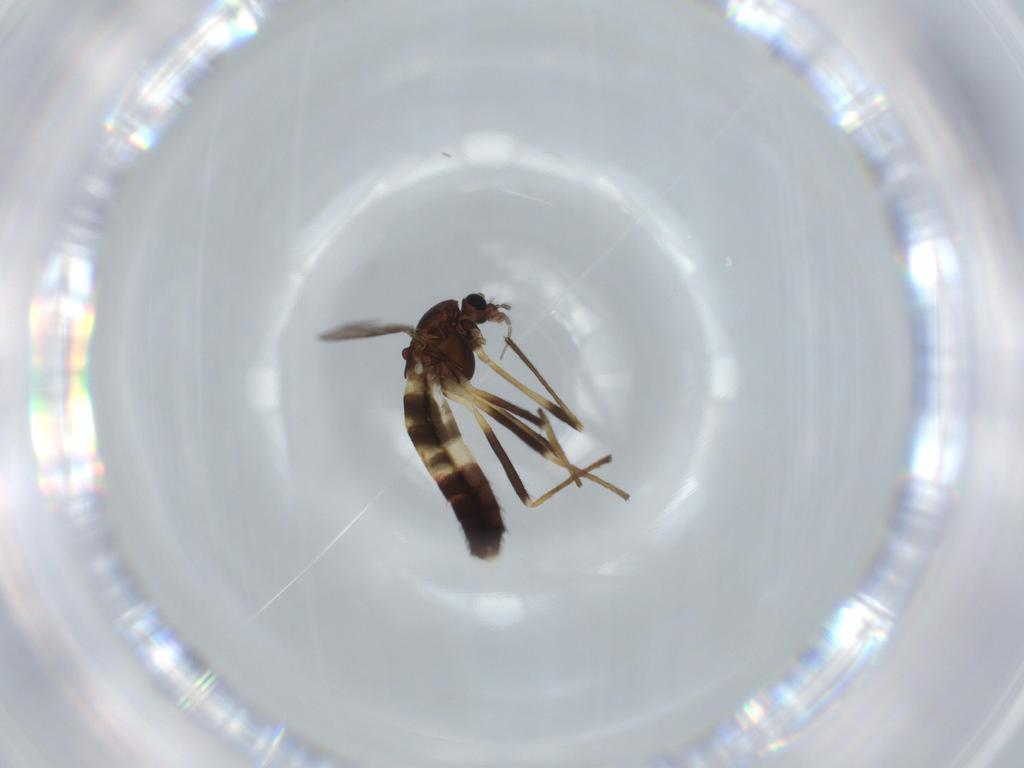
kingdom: Animalia
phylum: Arthropoda
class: Insecta
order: Diptera
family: Chironomidae
